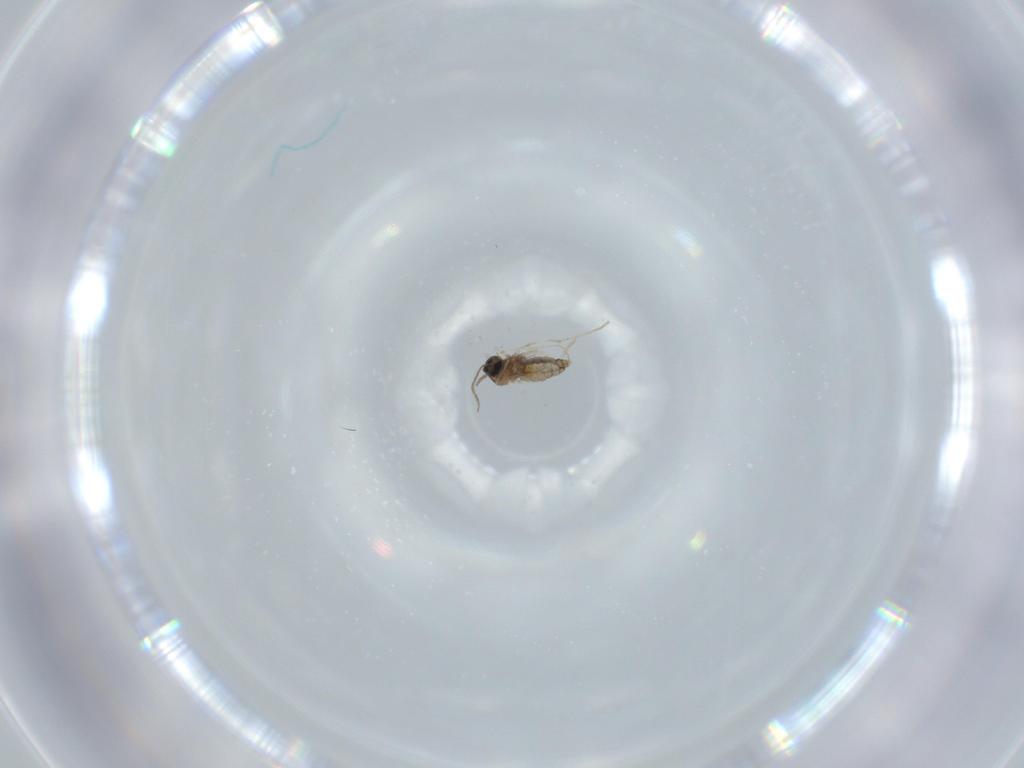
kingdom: Animalia
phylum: Arthropoda
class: Insecta
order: Diptera
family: Cecidomyiidae
